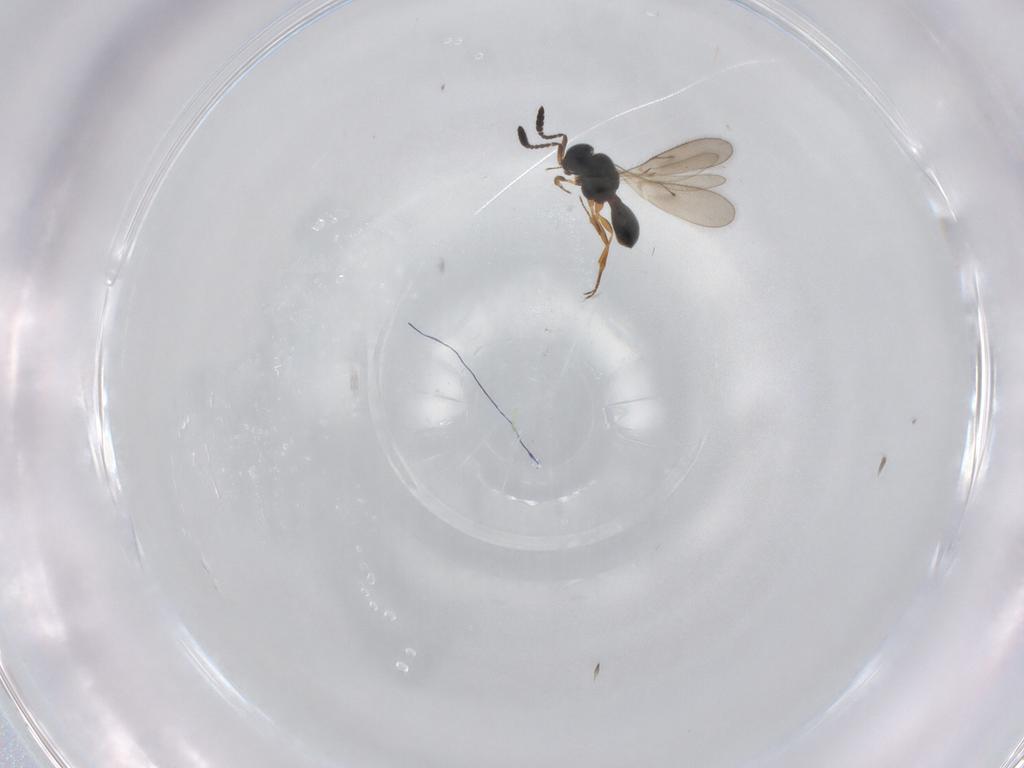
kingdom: Animalia
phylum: Arthropoda
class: Insecta
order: Hymenoptera
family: Scelionidae
